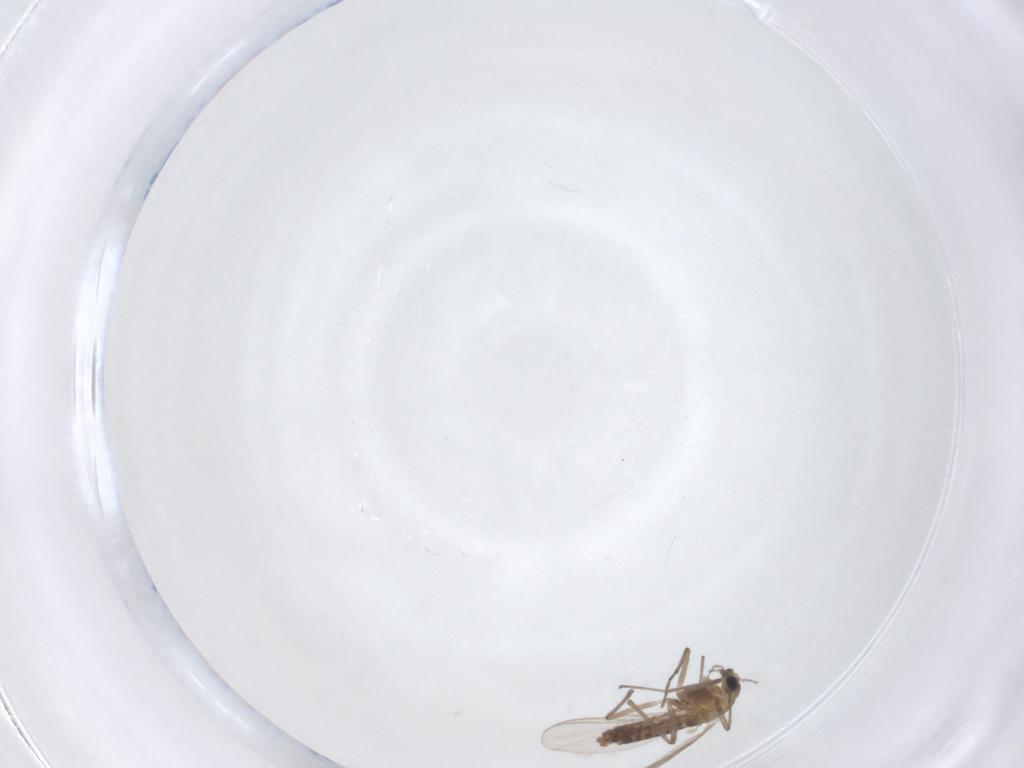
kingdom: Animalia
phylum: Arthropoda
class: Insecta
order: Diptera
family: Chironomidae
